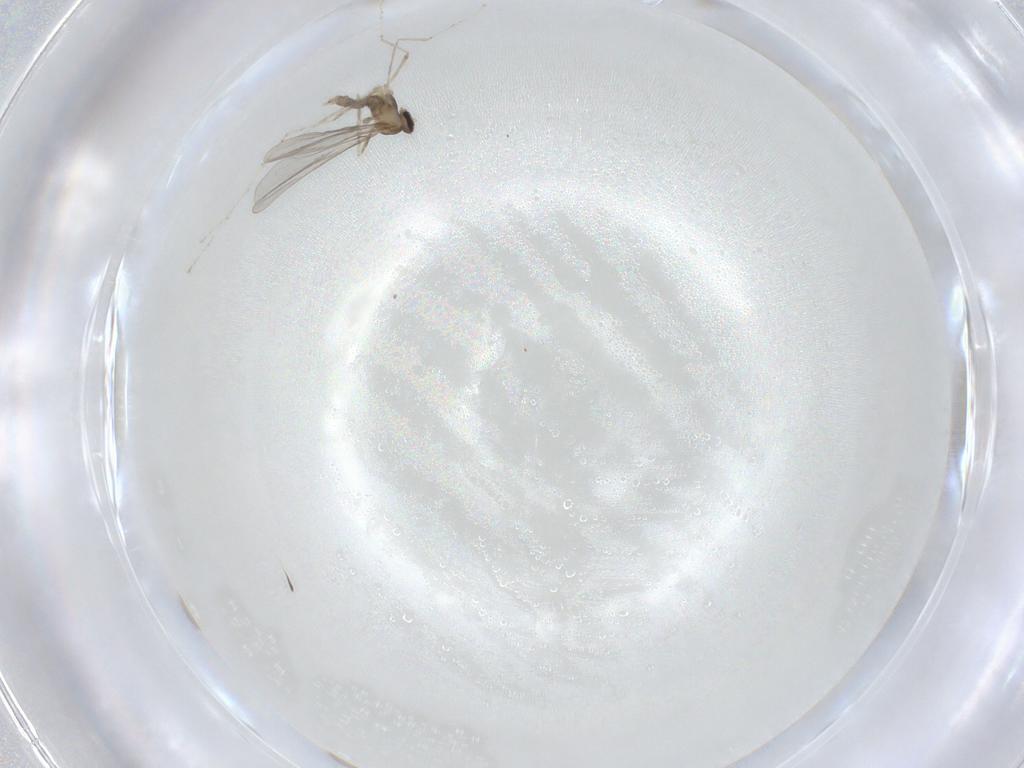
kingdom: Animalia
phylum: Arthropoda
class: Insecta
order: Diptera
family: Cecidomyiidae
